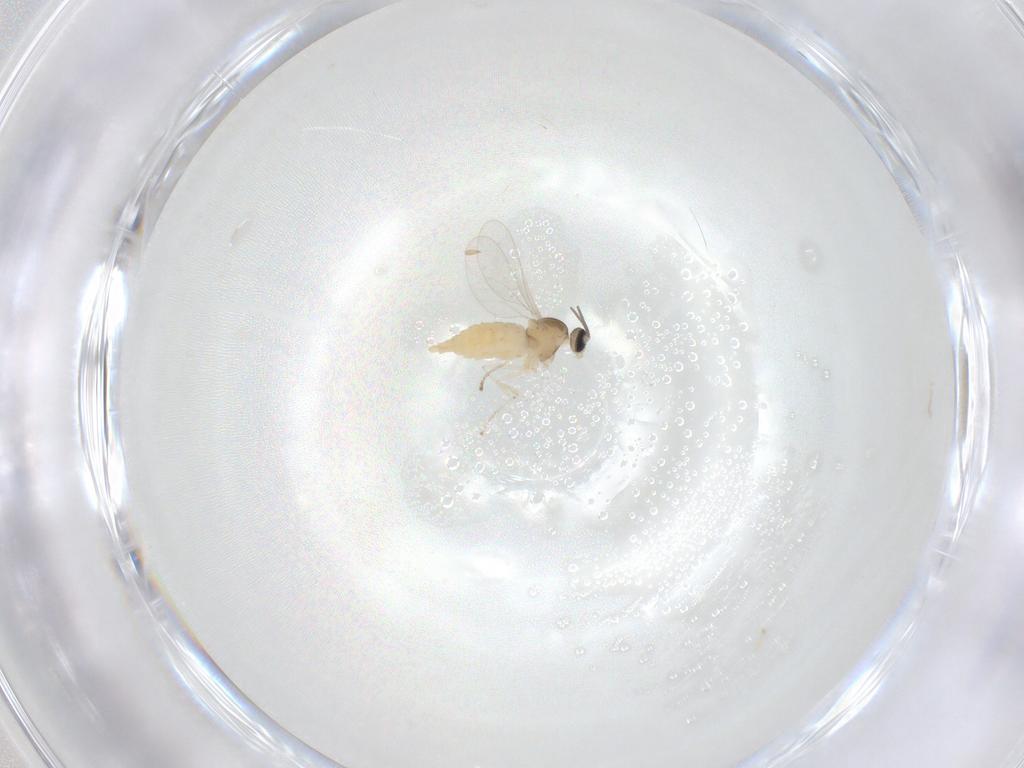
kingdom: Animalia
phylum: Arthropoda
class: Insecta
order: Diptera
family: Cecidomyiidae
